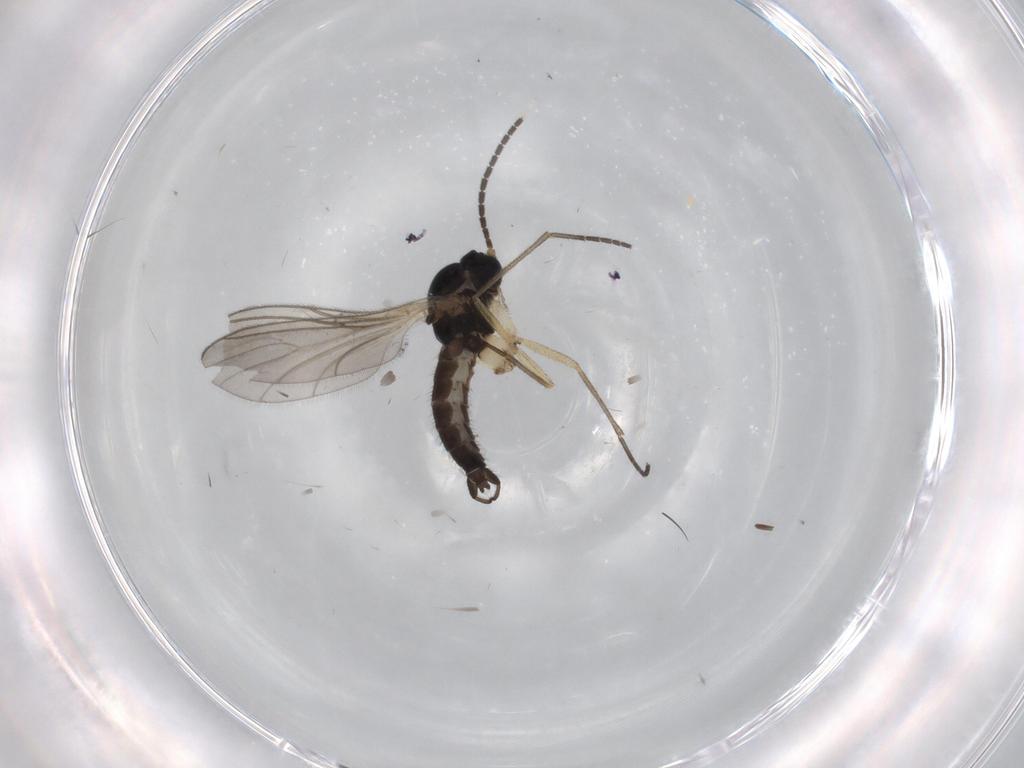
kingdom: Animalia
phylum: Arthropoda
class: Insecta
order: Diptera
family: Sciaridae
